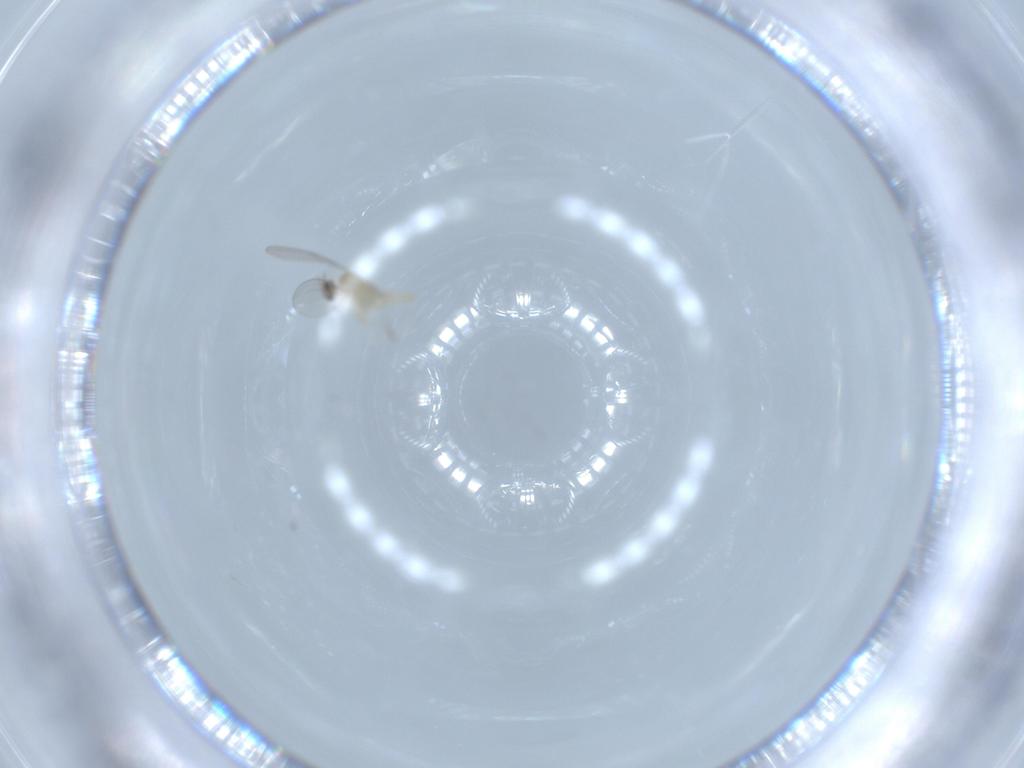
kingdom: Animalia
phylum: Arthropoda
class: Insecta
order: Diptera
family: Cecidomyiidae
